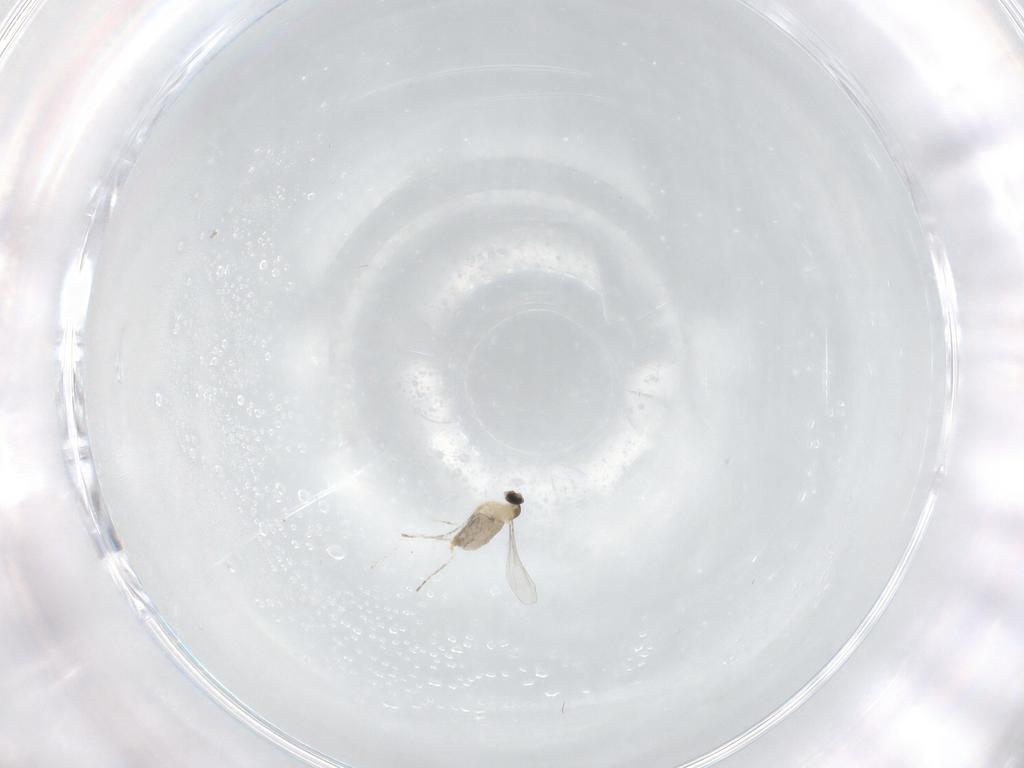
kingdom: Animalia
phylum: Arthropoda
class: Insecta
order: Diptera
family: Cecidomyiidae
